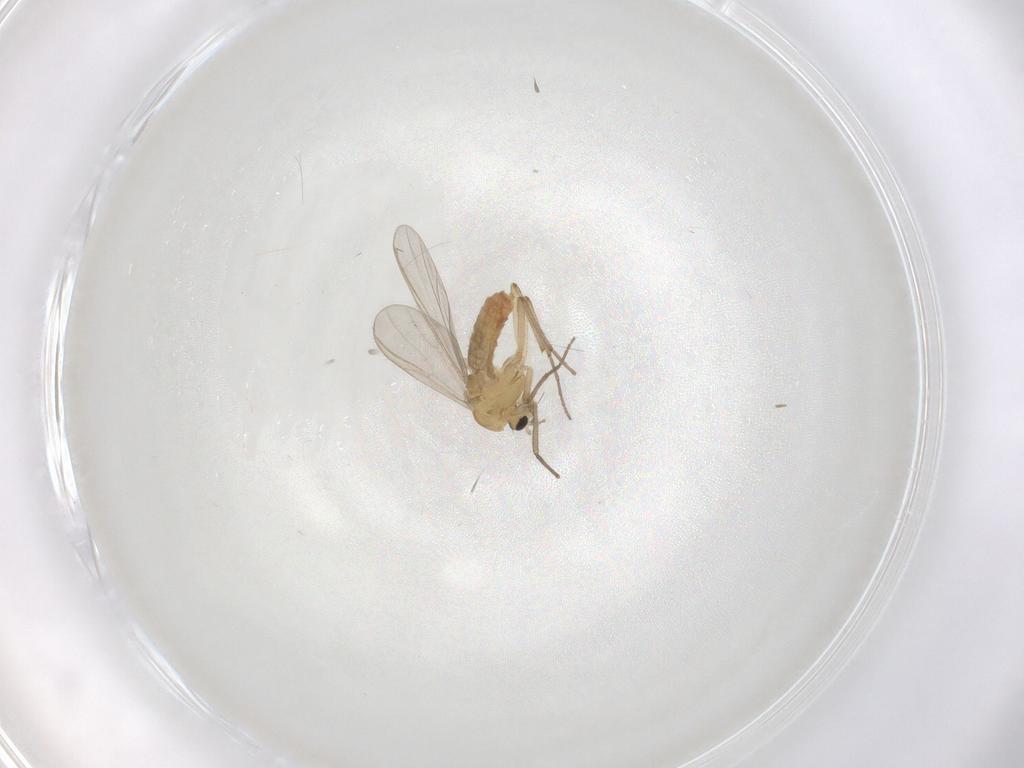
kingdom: Animalia
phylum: Arthropoda
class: Insecta
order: Diptera
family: Chironomidae
